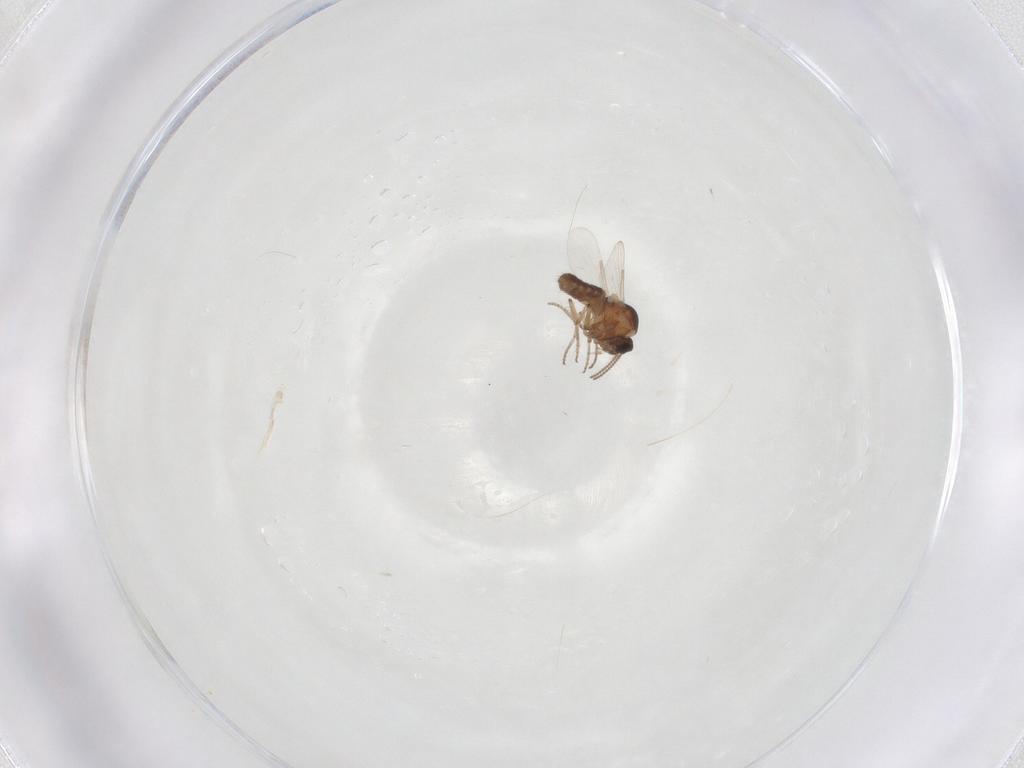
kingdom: Animalia
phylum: Arthropoda
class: Insecta
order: Diptera
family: Ceratopogonidae
